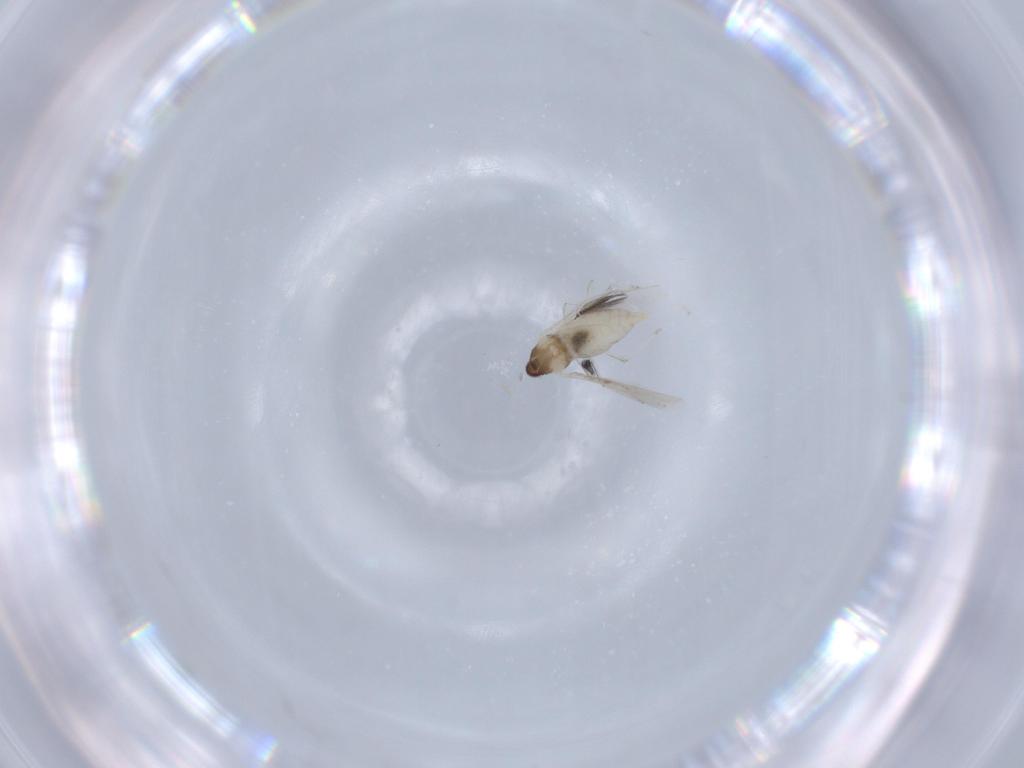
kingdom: Animalia
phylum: Arthropoda
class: Insecta
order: Diptera
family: Cecidomyiidae
